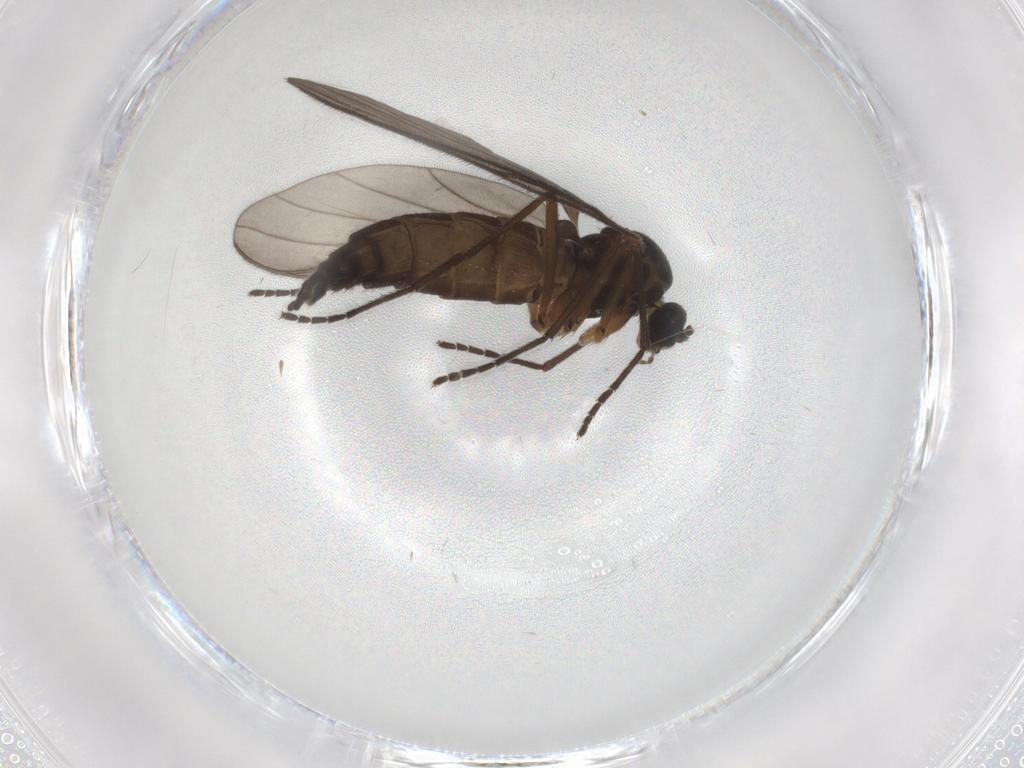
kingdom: Animalia
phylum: Arthropoda
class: Insecta
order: Diptera
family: Sciaridae
